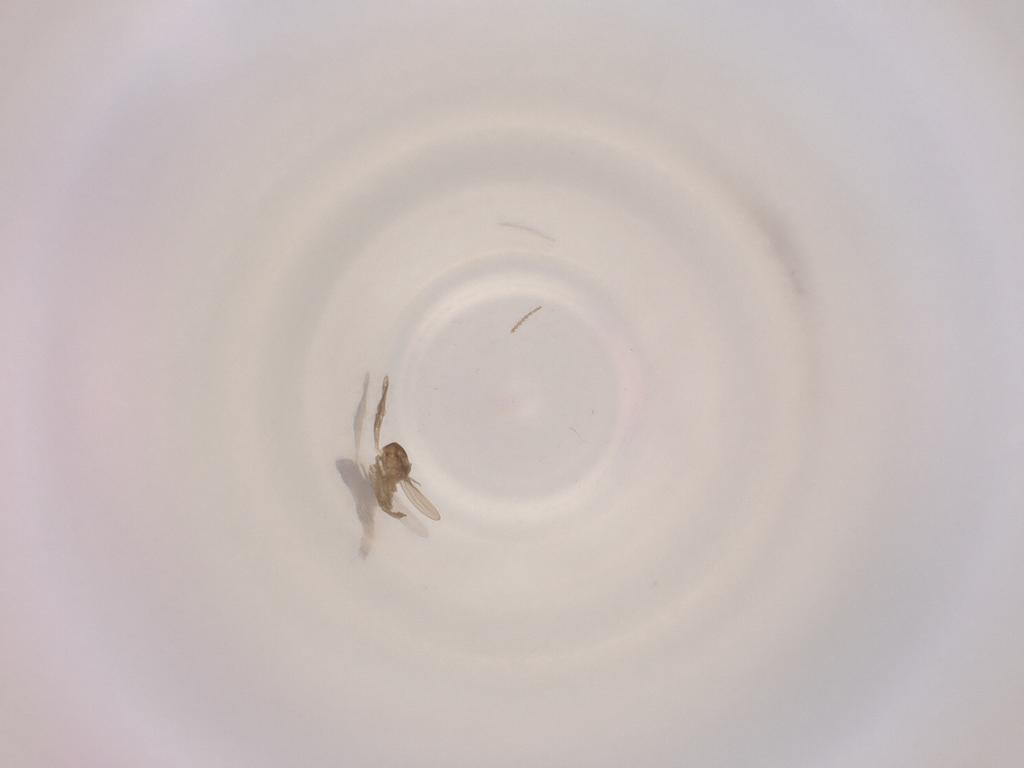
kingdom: Animalia
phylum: Arthropoda
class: Insecta
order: Diptera
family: Cecidomyiidae
